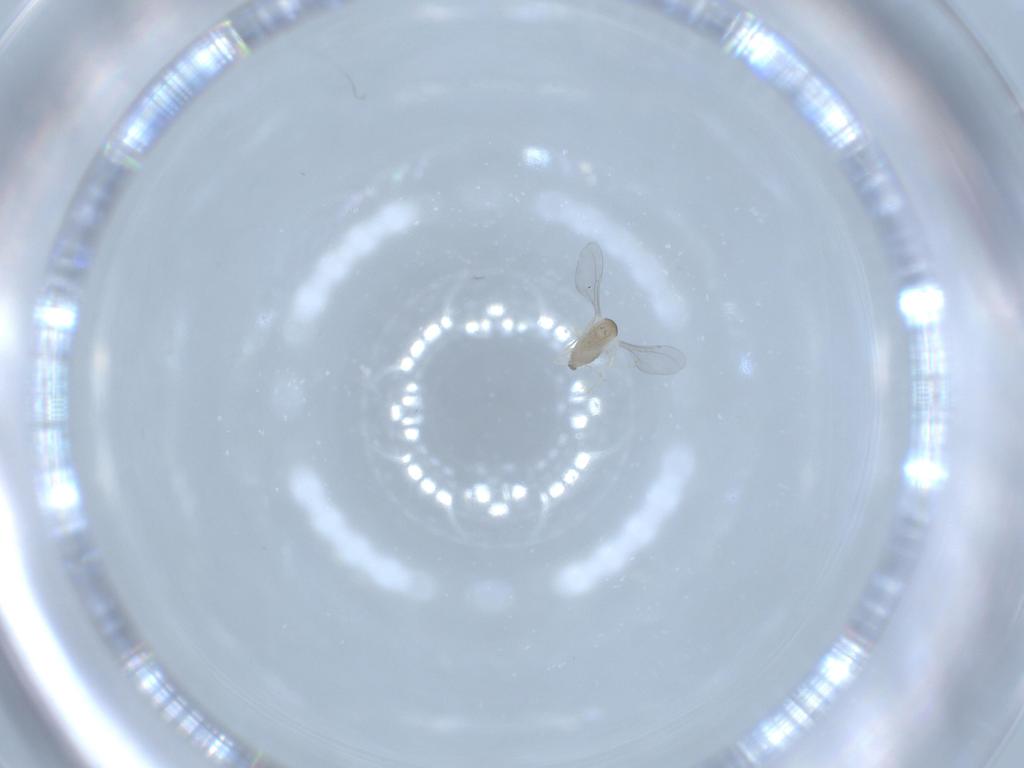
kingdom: Animalia
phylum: Arthropoda
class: Insecta
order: Diptera
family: Cecidomyiidae
